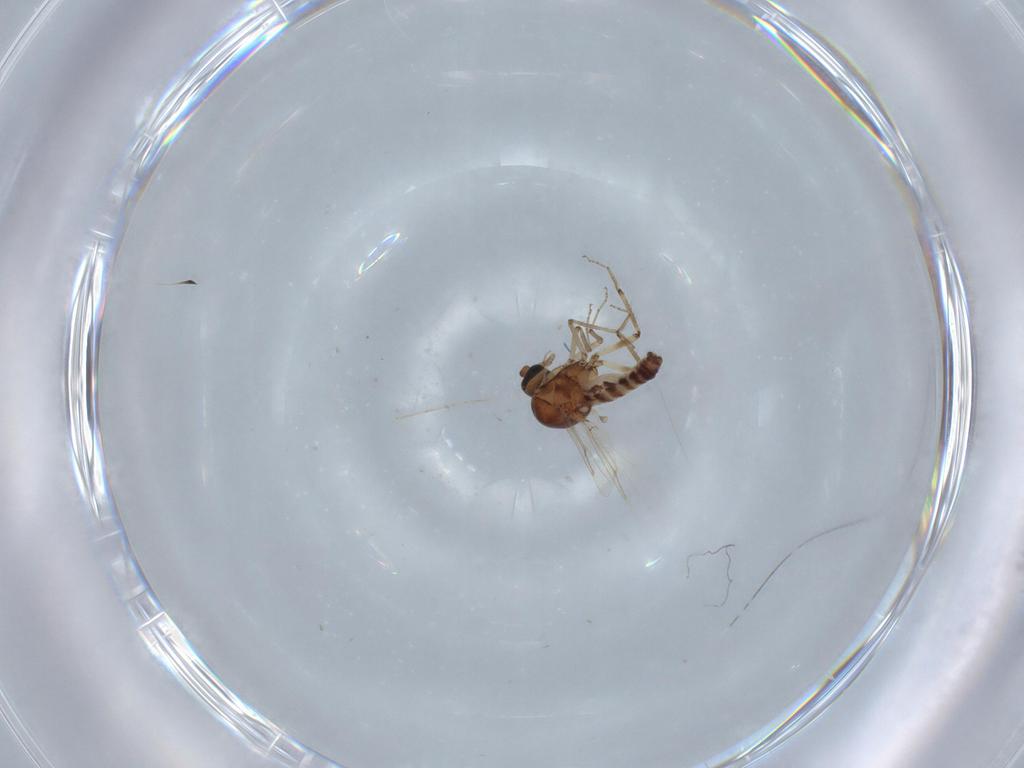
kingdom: Animalia
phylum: Arthropoda
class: Insecta
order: Diptera
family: Ceratopogonidae
